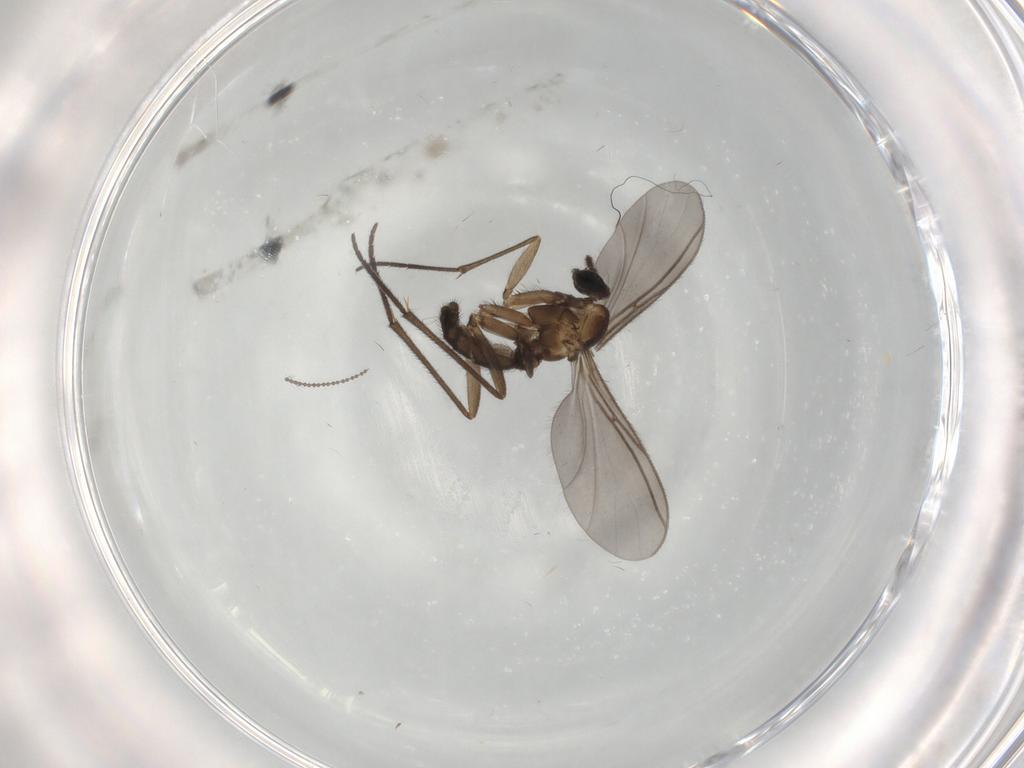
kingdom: Animalia
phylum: Arthropoda
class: Insecta
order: Diptera
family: Sciaridae
